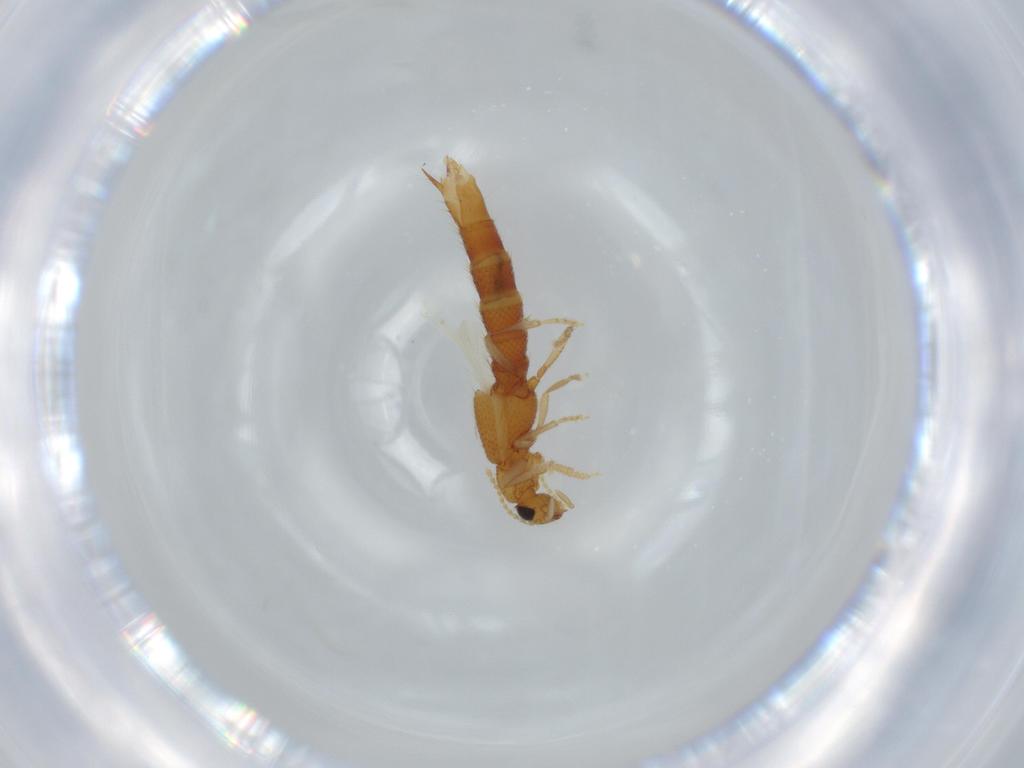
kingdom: Animalia
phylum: Arthropoda
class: Insecta
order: Coleoptera
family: Staphylinidae
